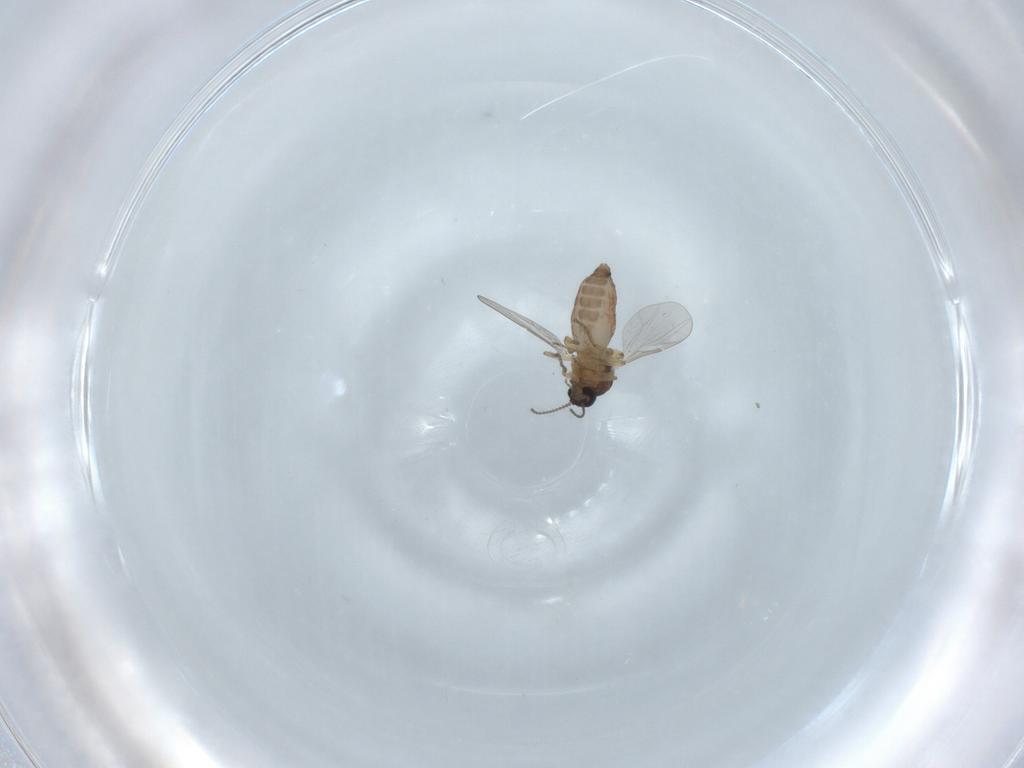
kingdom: Animalia
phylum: Arthropoda
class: Insecta
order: Diptera
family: Ceratopogonidae
